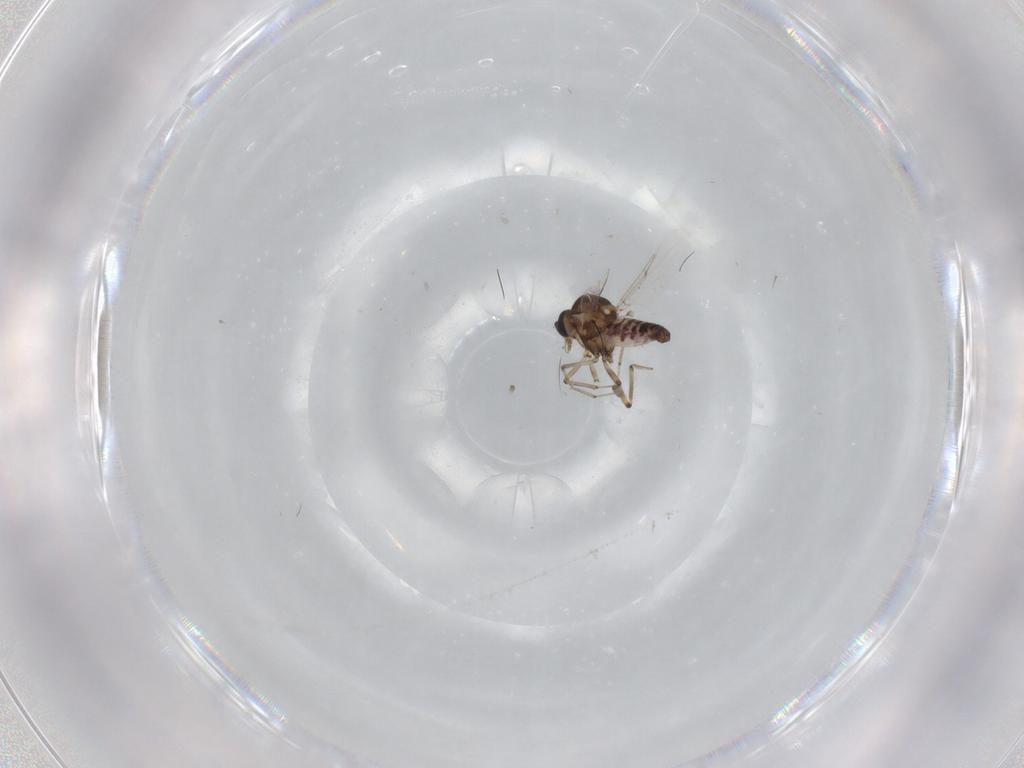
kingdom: Animalia
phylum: Arthropoda
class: Insecta
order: Diptera
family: Ceratopogonidae
